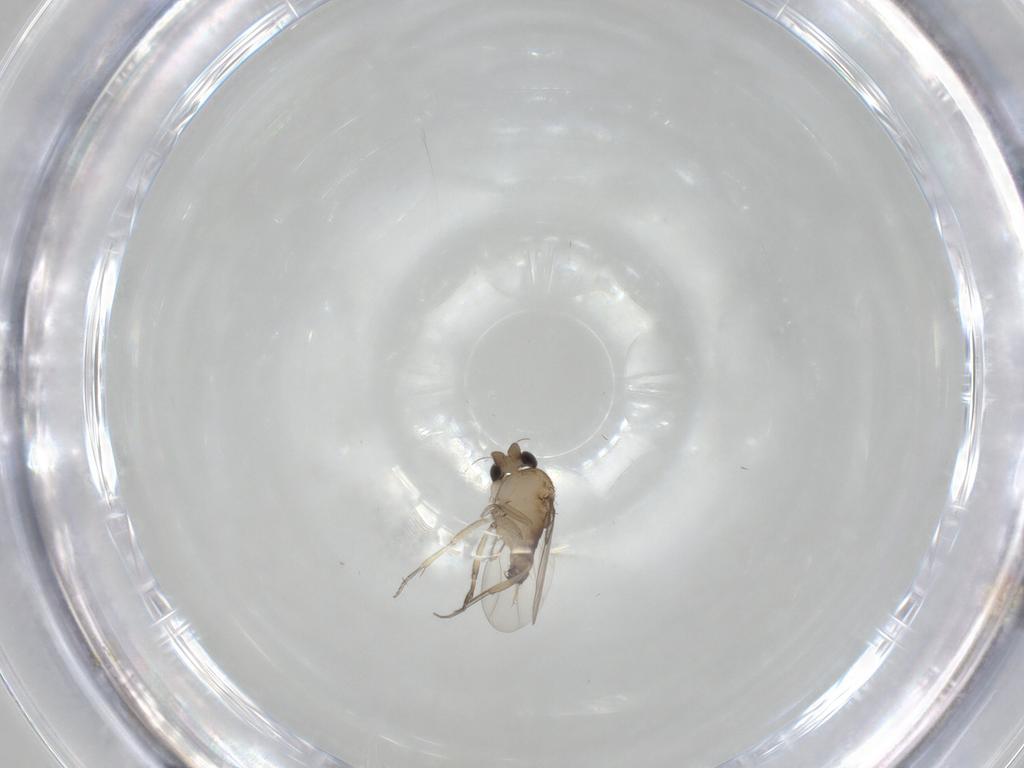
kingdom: Animalia
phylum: Arthropoda
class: Insecta
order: Diptera
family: Phoridae
